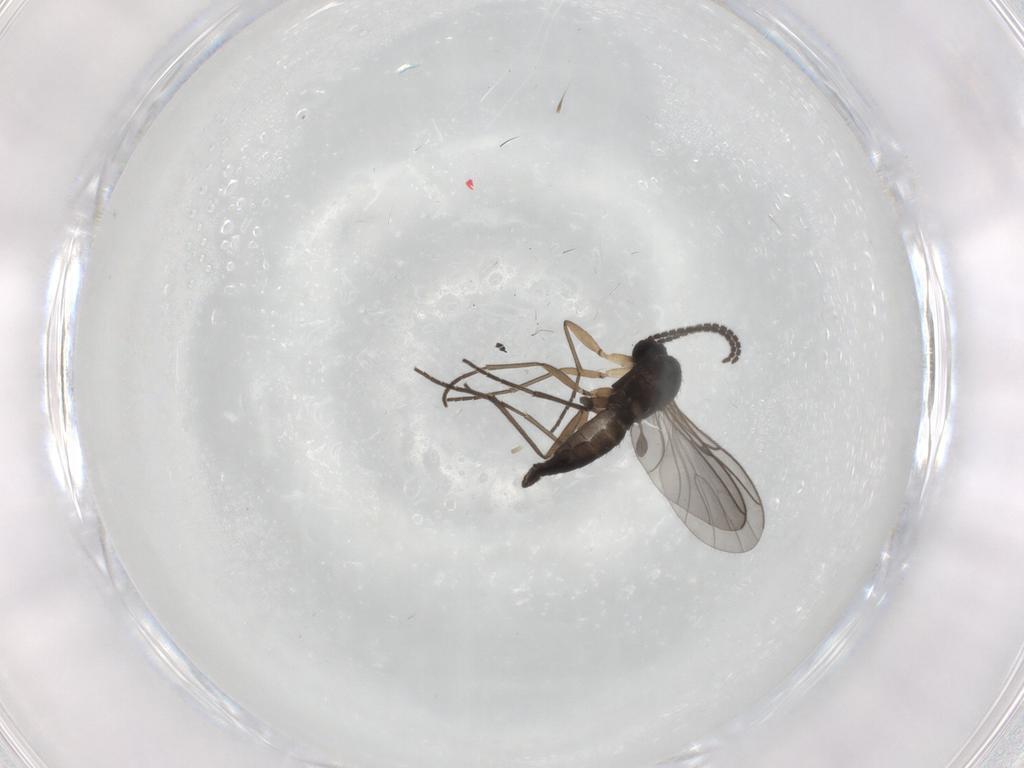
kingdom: Animalia
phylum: Arthropoda
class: Insecta
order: Diptera
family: Sciaridae
